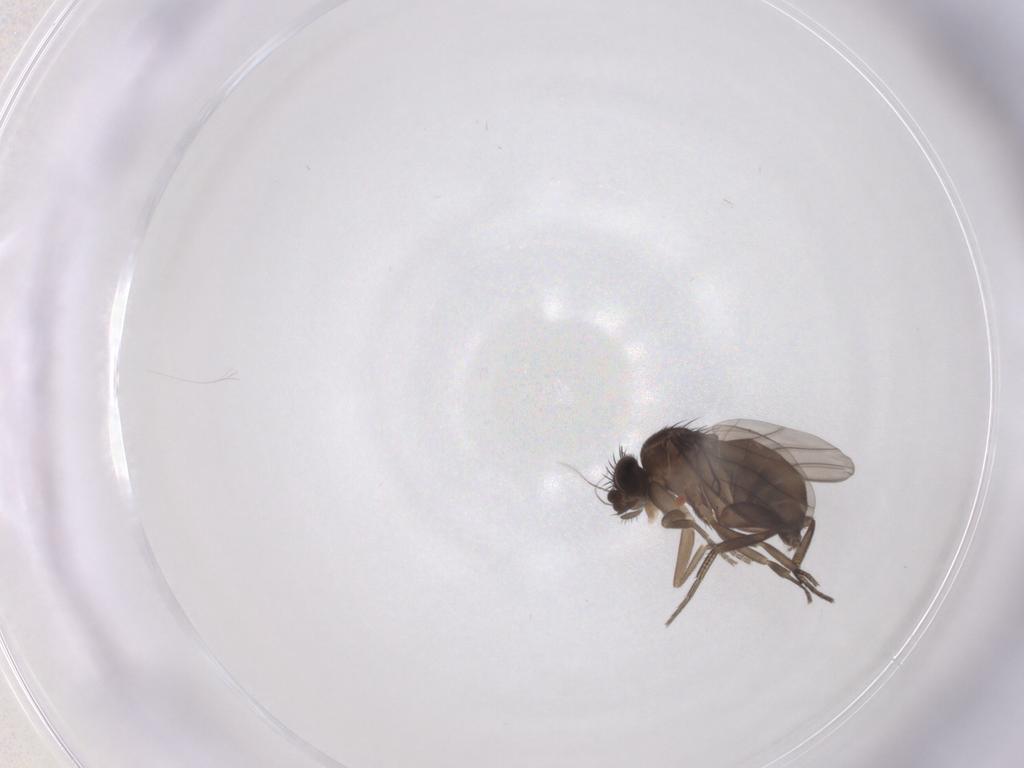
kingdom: Animalia
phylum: Arthropoda
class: Insecta
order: Diptera
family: Phoridae
